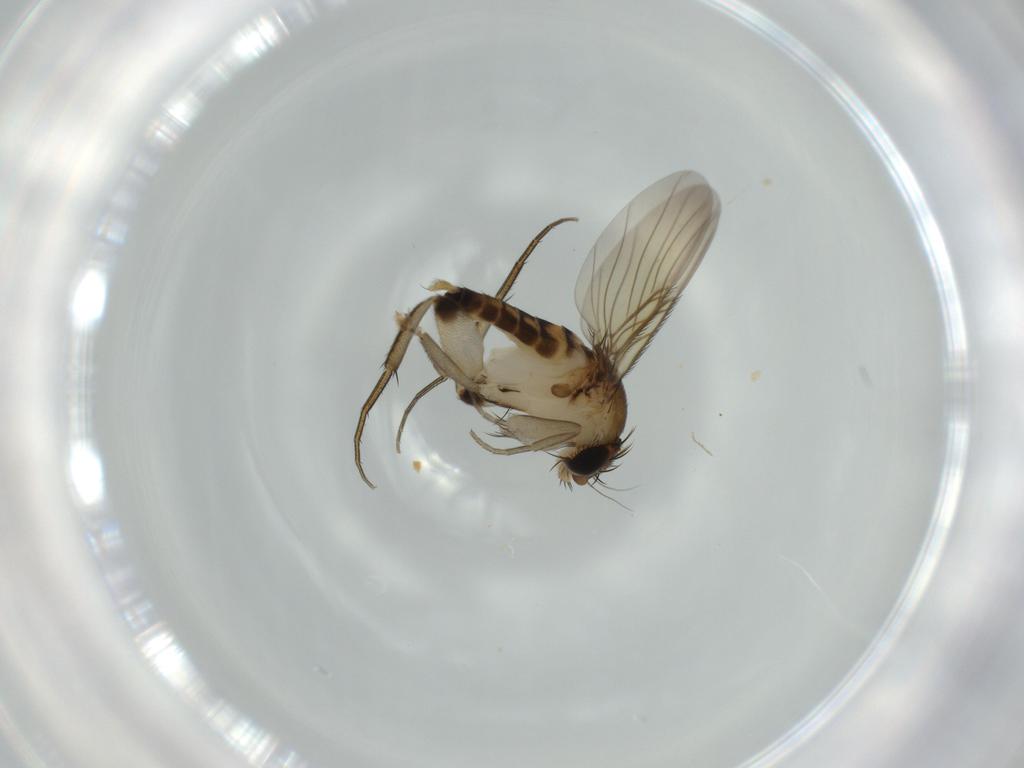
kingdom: Animalia
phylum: Arthropoda
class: Insecta
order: Diptera
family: Phoridae
